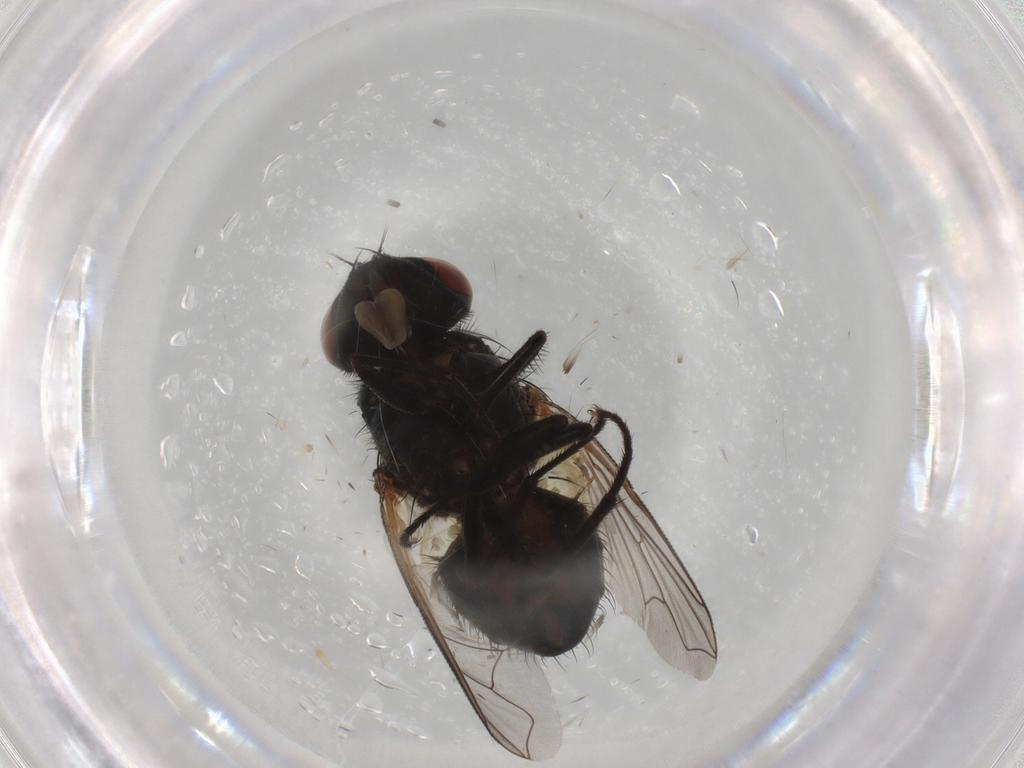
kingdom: Animalia
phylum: Arthropoda
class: Insecta
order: Diptera
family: Muscidae
